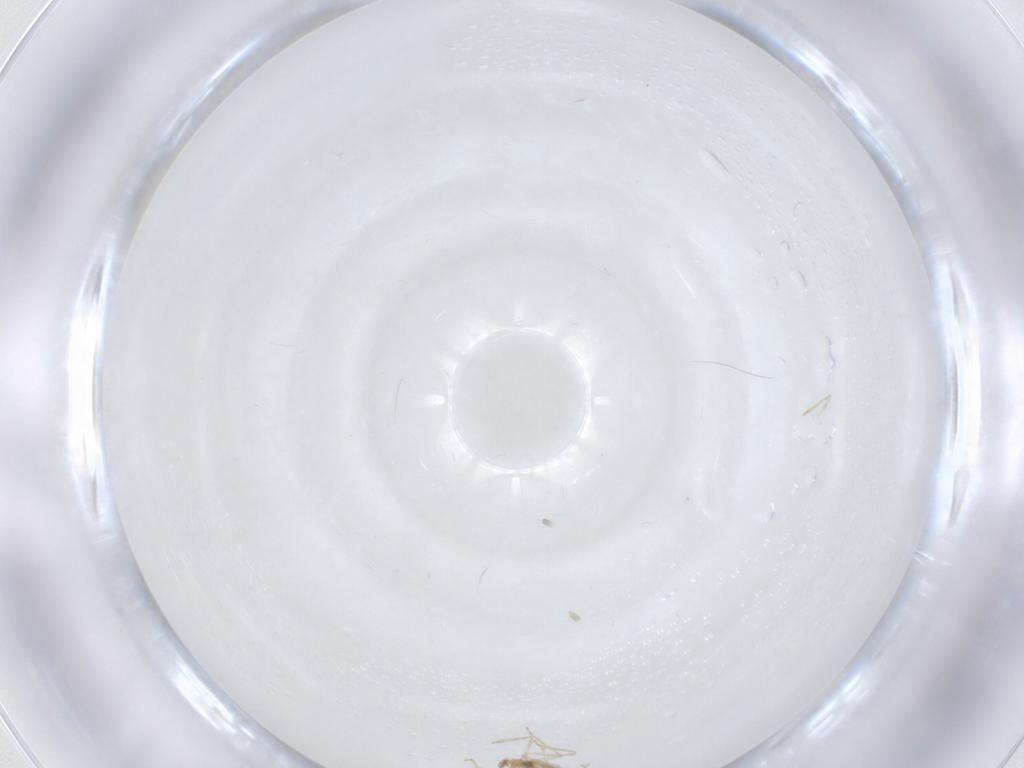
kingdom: Animalia
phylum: Arthropoda
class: Insecta
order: Diptera
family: Cecidomyiidae
